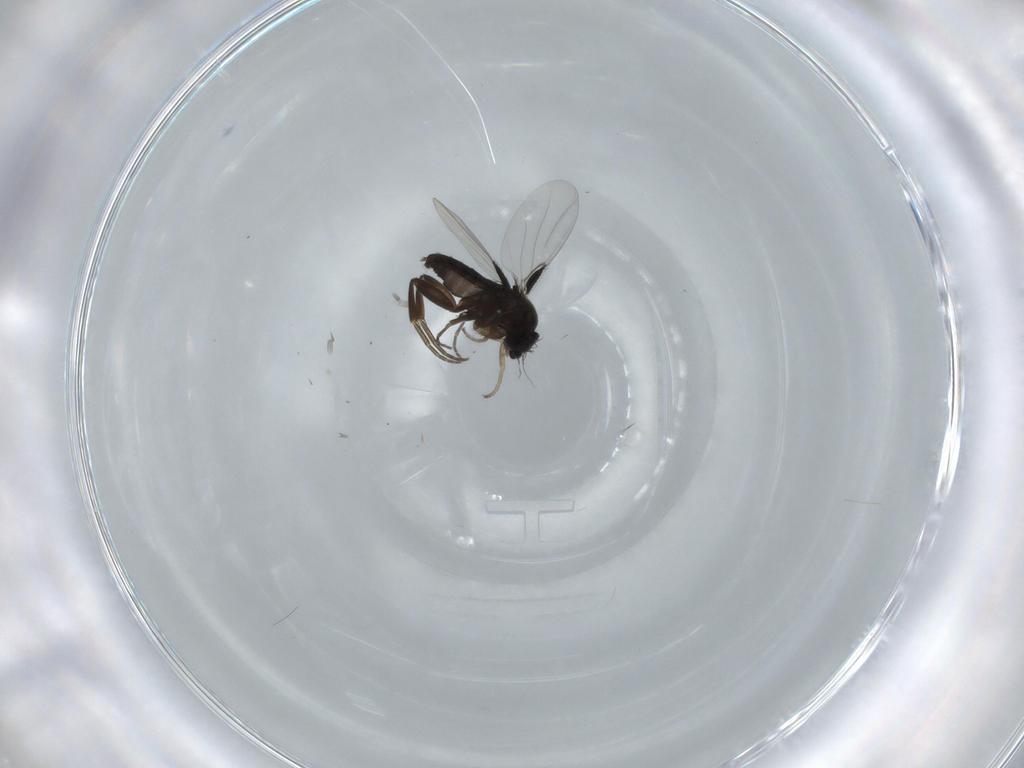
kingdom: Animalia
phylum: Arthropoda
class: Insecta
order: Diptera
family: Phoridae
